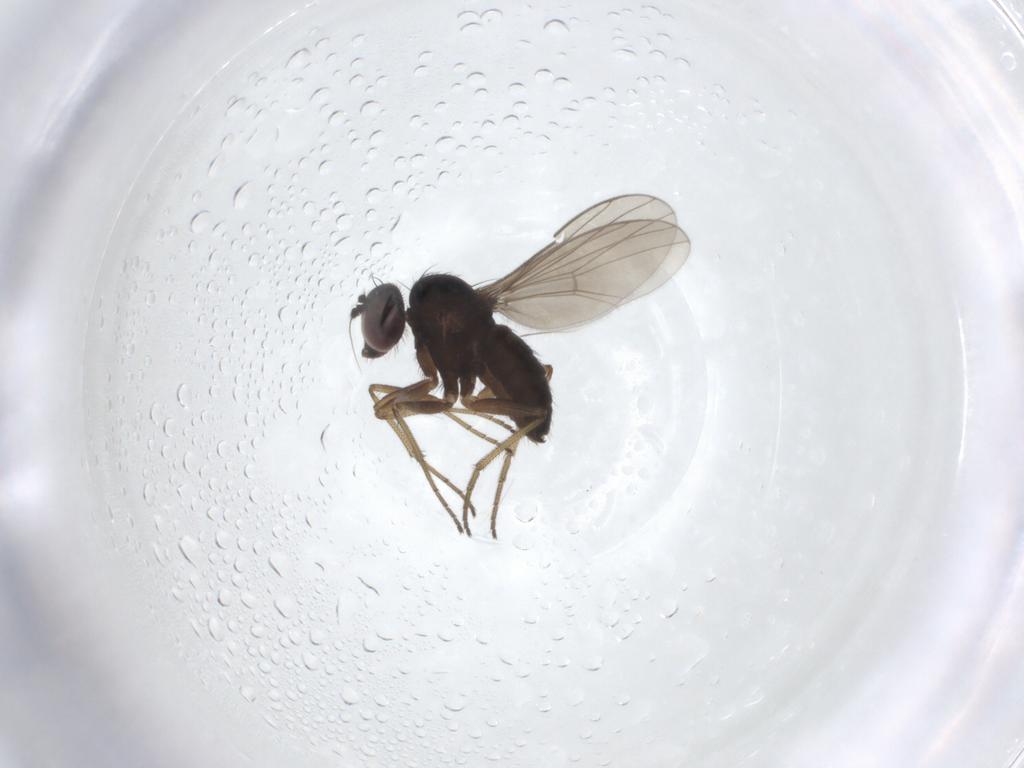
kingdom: Animalia
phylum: Arthropoda
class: Insecta
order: Diptera
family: Dolichopodidae
